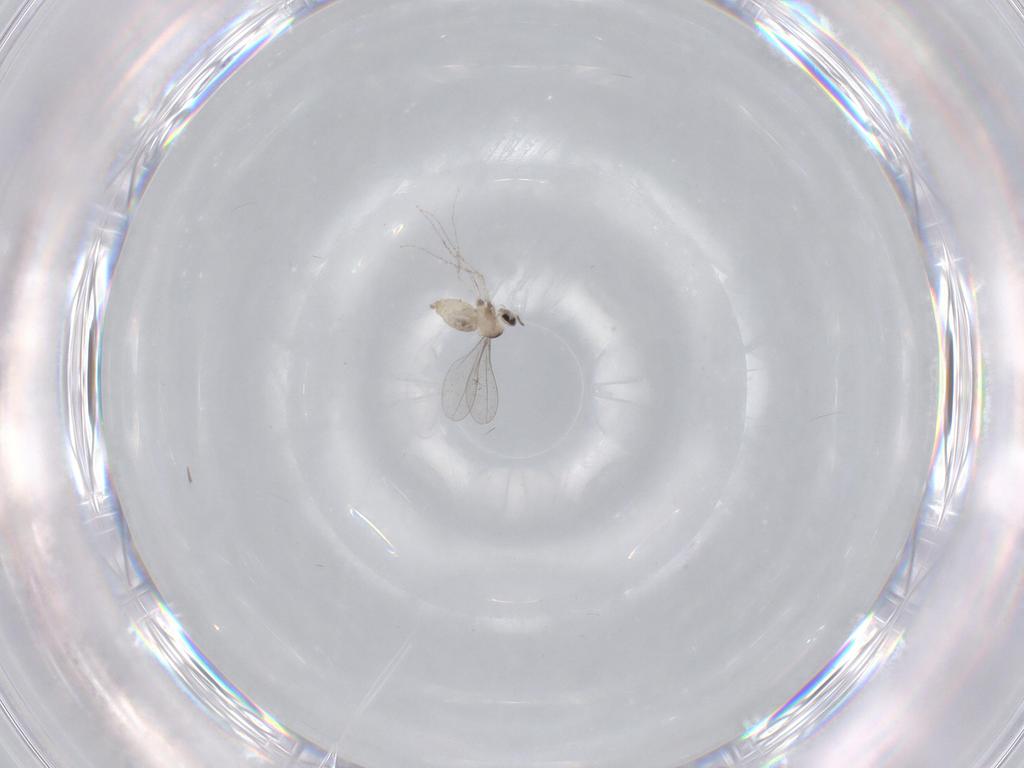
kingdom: Animalia
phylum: Arthropoda
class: Insecta
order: Diptera
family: Cecidomyiidae
